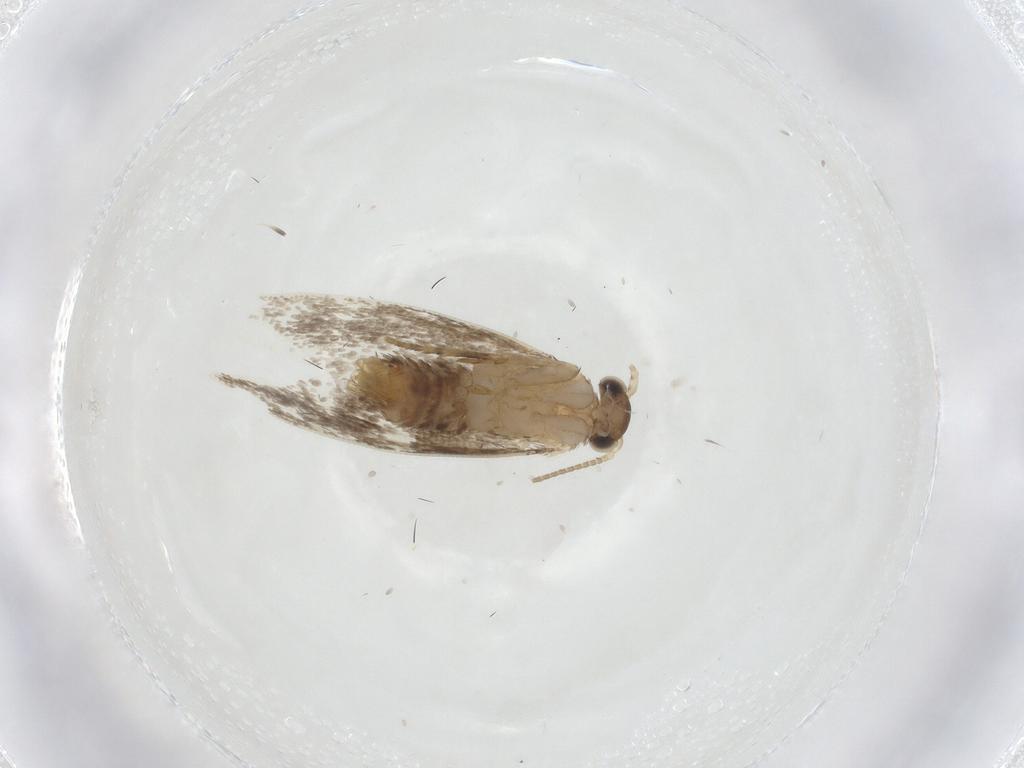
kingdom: Animalia
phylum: Arthropoda
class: Insecta
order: Lepidoptera
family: Dryadaulidae
